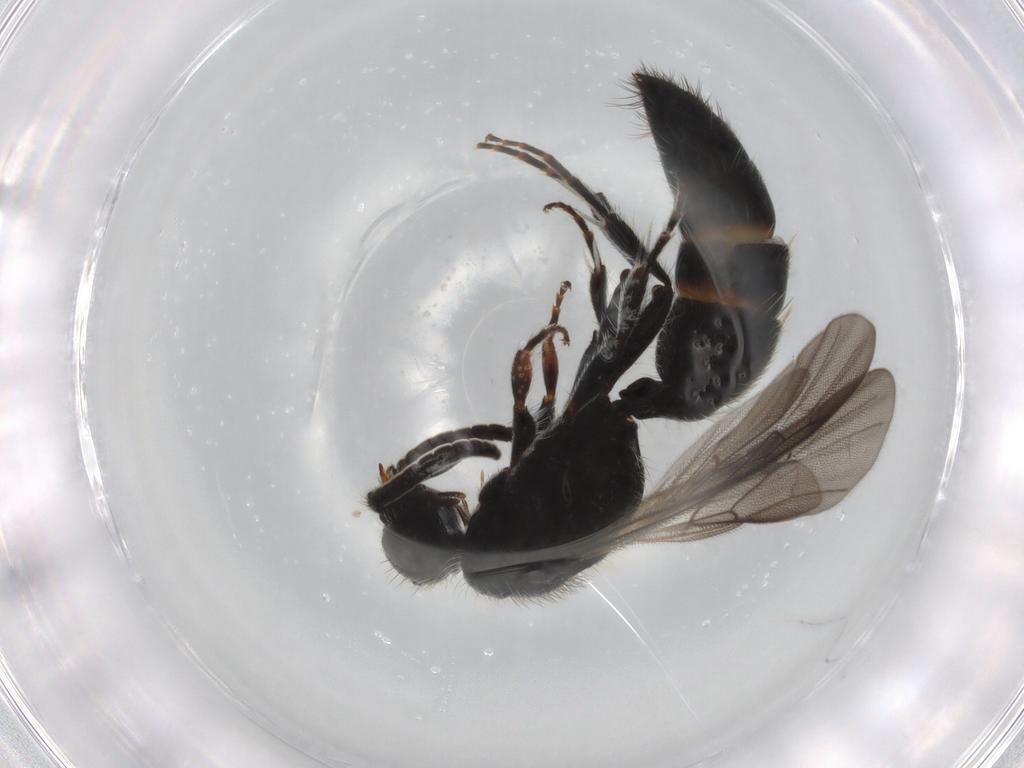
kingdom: Animalia
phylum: Arthropoda
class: Insecta
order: Hymenoptera
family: Mutillidae
